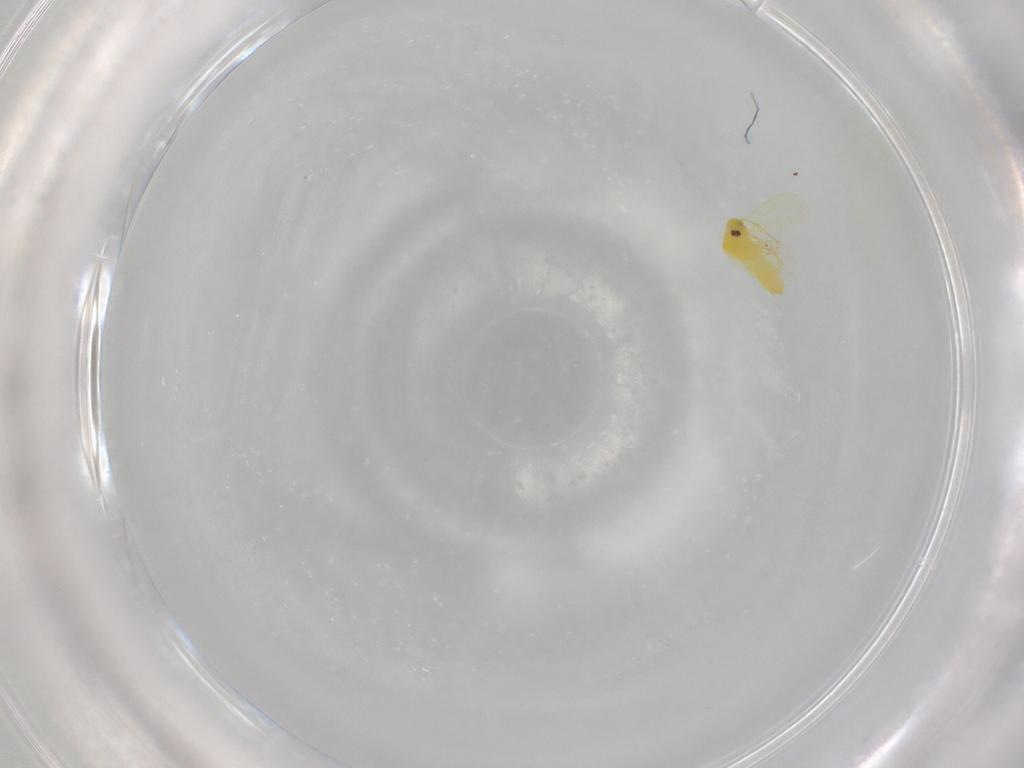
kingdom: Animalia
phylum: Arthropoda
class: Insecta
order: Hemiptera
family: Aleyrodidae
